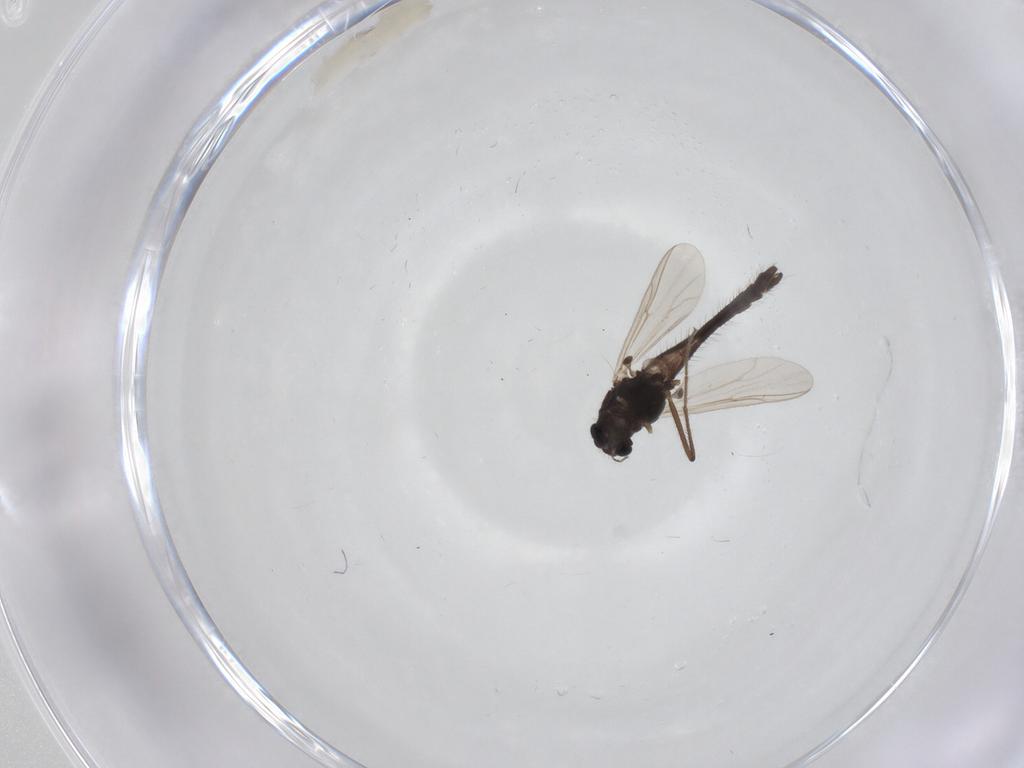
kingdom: Animalia
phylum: Arthropoda
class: Insecta
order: Diptera
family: Chironomidae
